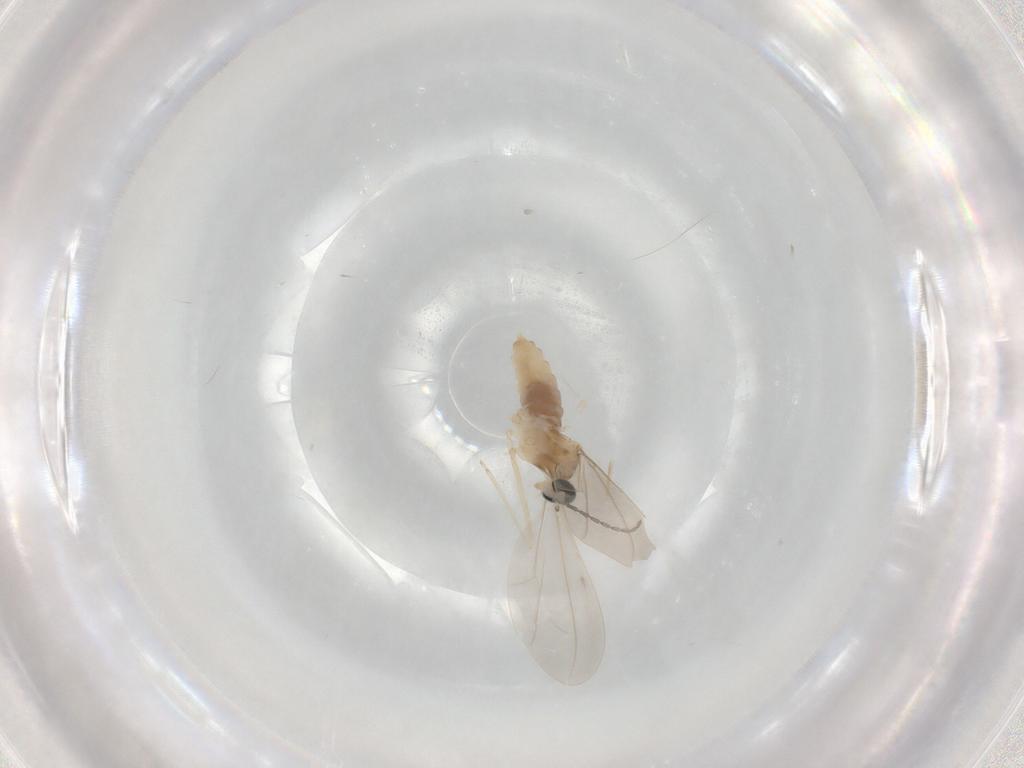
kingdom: Animalia
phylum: Arthropoda
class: Insecta
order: Diptera
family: Cecidomyiidae
